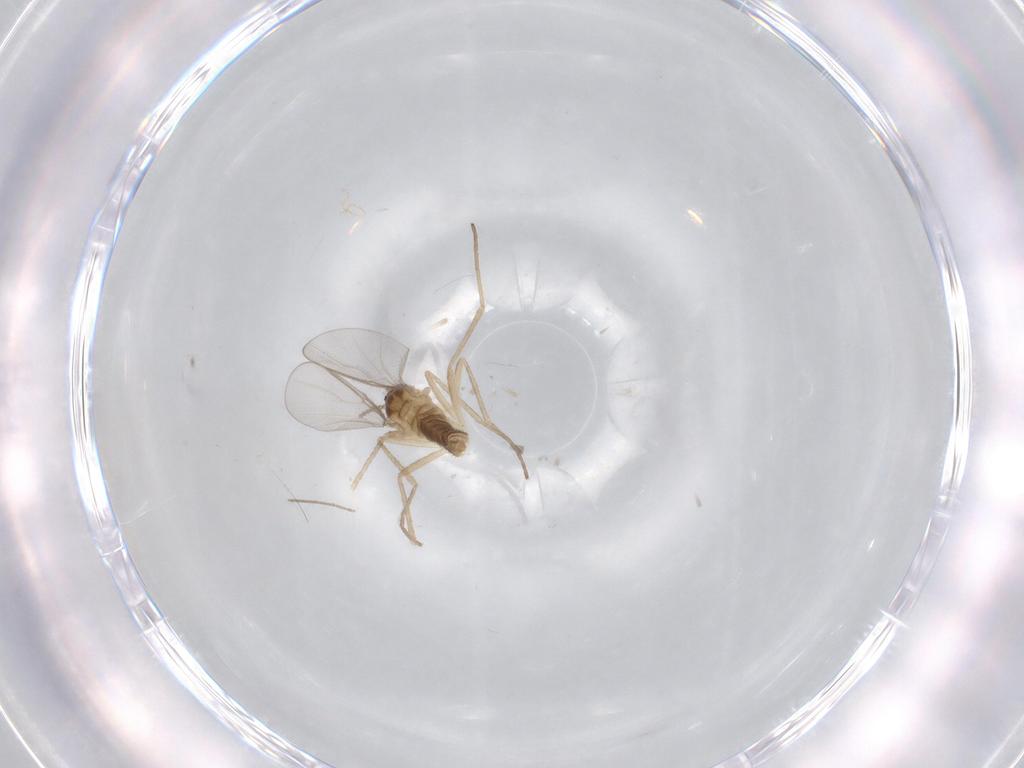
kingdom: Animalia
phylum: Arthropoda
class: Insecta
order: Diptera
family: Cecidomyiidae
